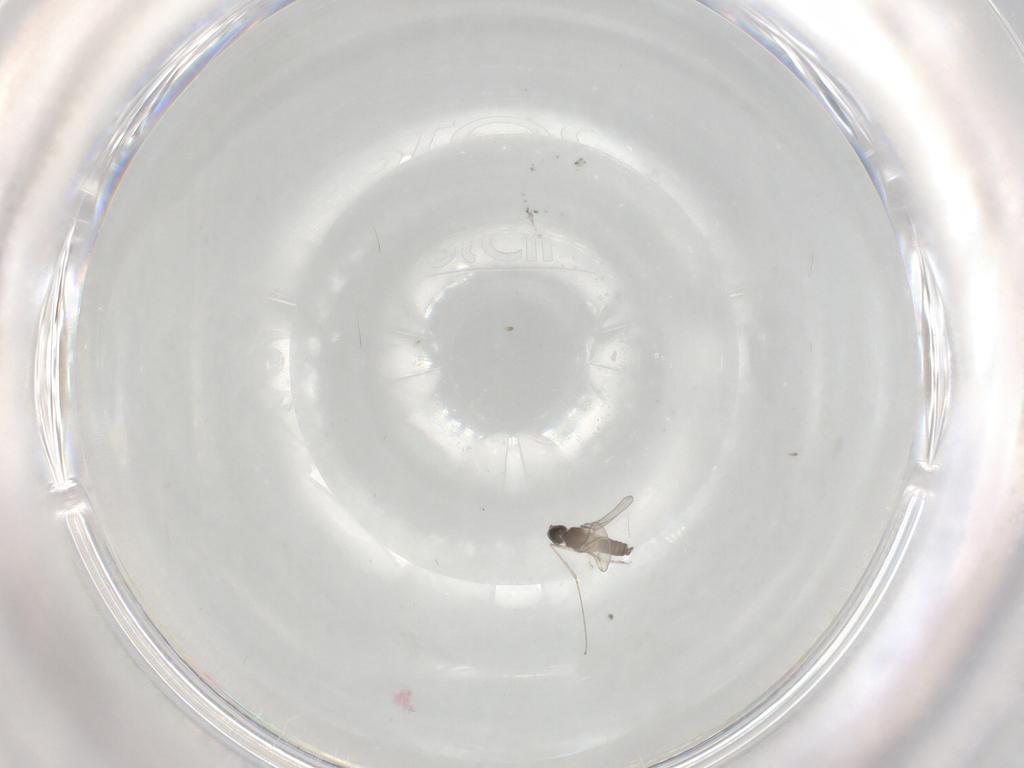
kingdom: Animalia
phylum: Arthropoda
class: Insecta
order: Diptera
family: Cecidomyiidae
